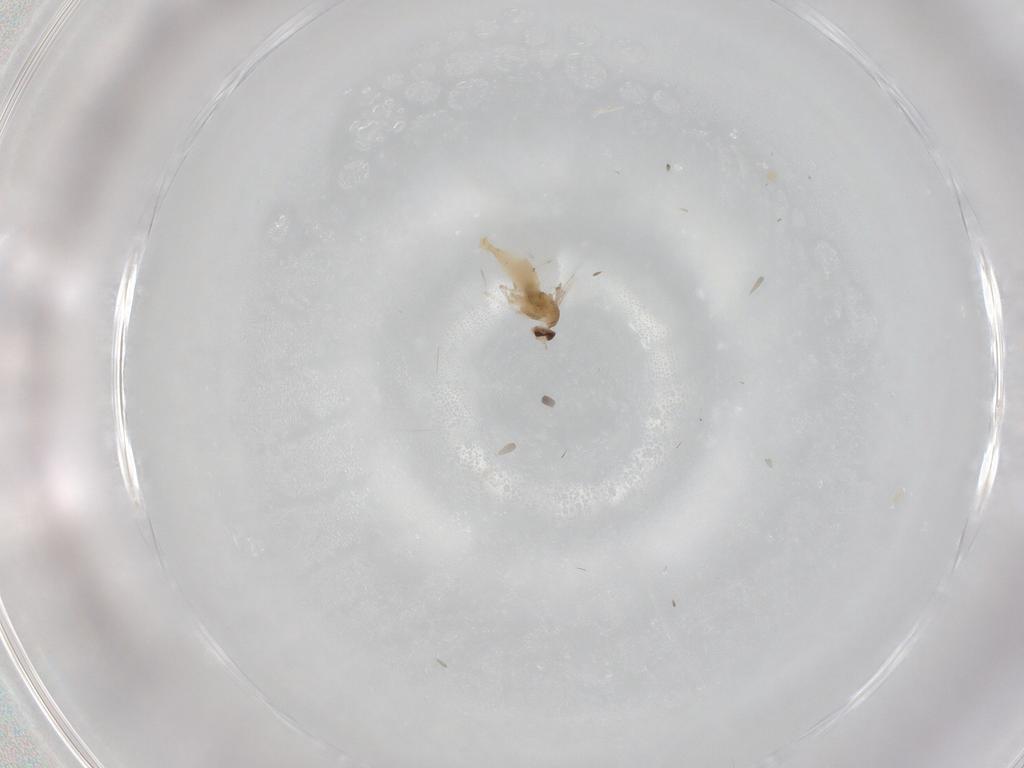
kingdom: Animalia
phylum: Arthropoda
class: Insecta
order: Diptera
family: Syrphidae
